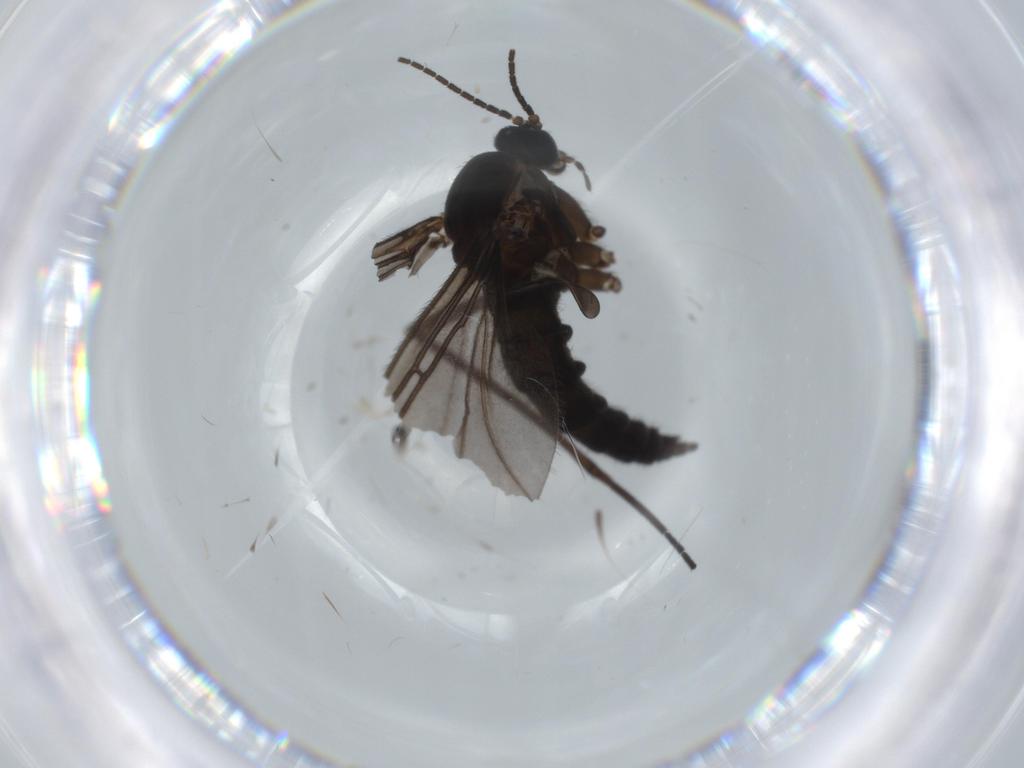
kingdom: Animalia
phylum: Arthropoda
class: Insecta
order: Diptera
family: Sciaridae
